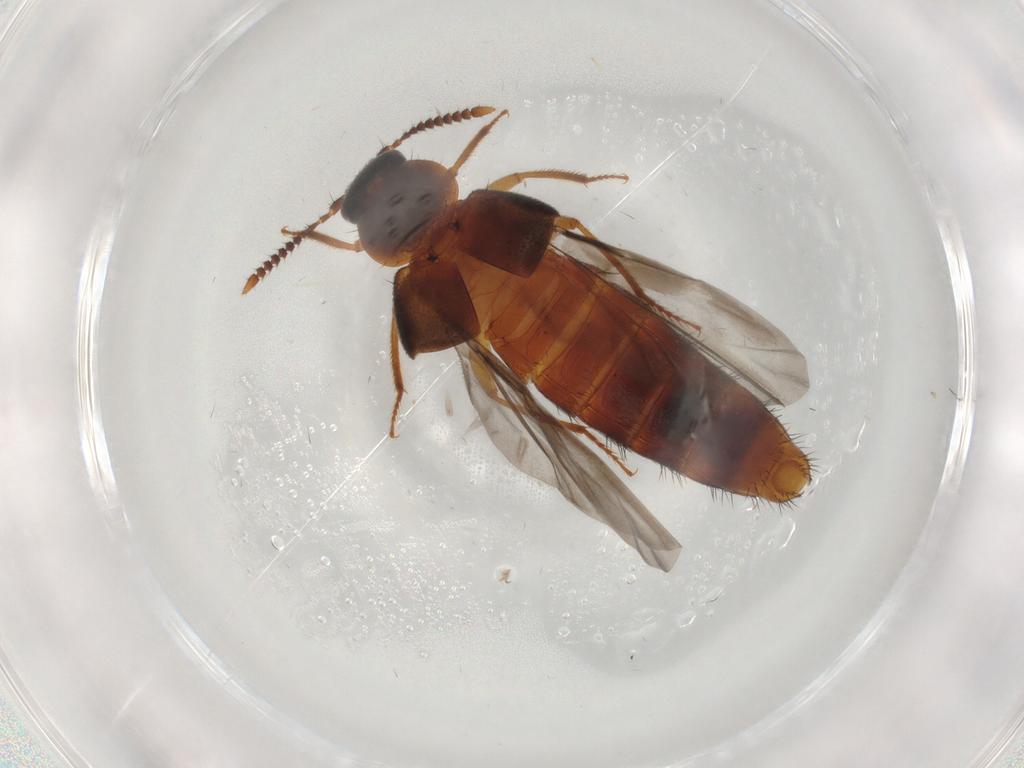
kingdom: Animalia
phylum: Arthropoda
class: Insecta
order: Coleoptera
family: Staphylinidae
